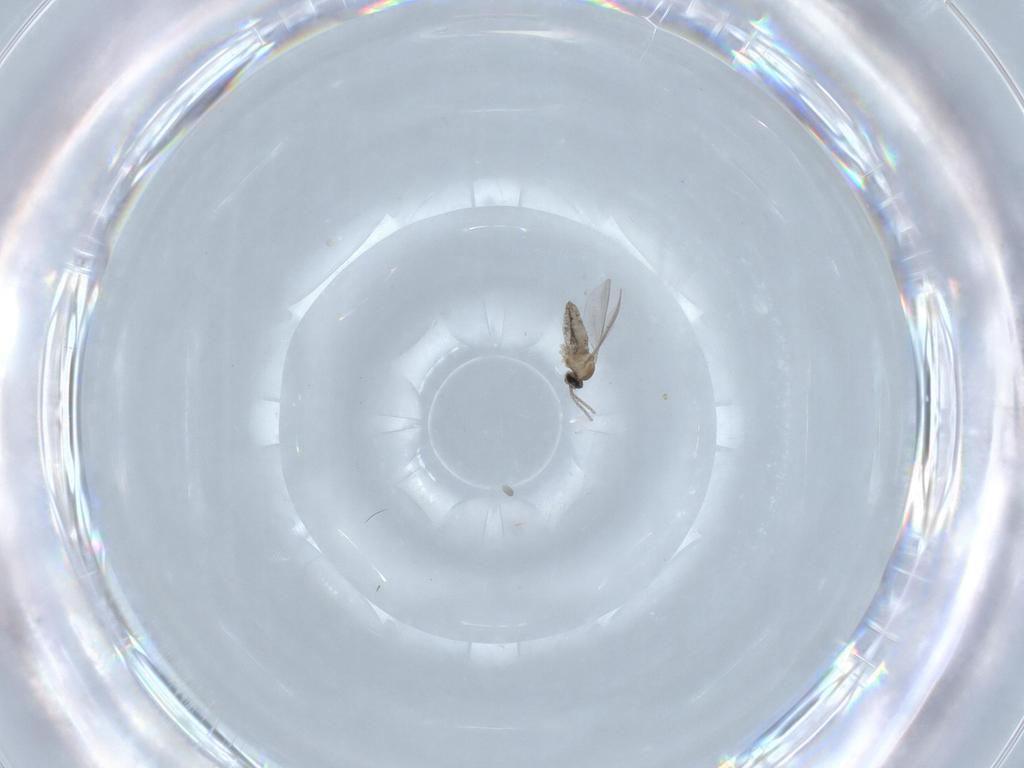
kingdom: Animalia
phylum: Arthropoda
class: Insecta
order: Diptera
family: Cecidomyiidae
